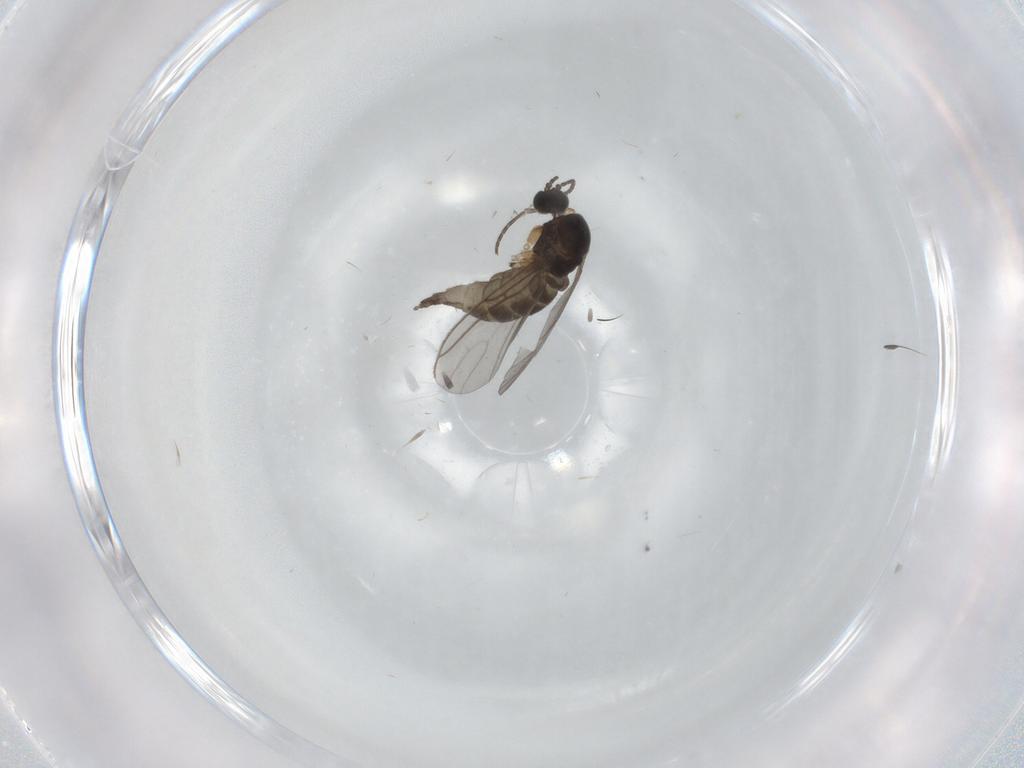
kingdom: Animalia
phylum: Arthropoda
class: Insecta
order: Diptera
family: Sciaridae
